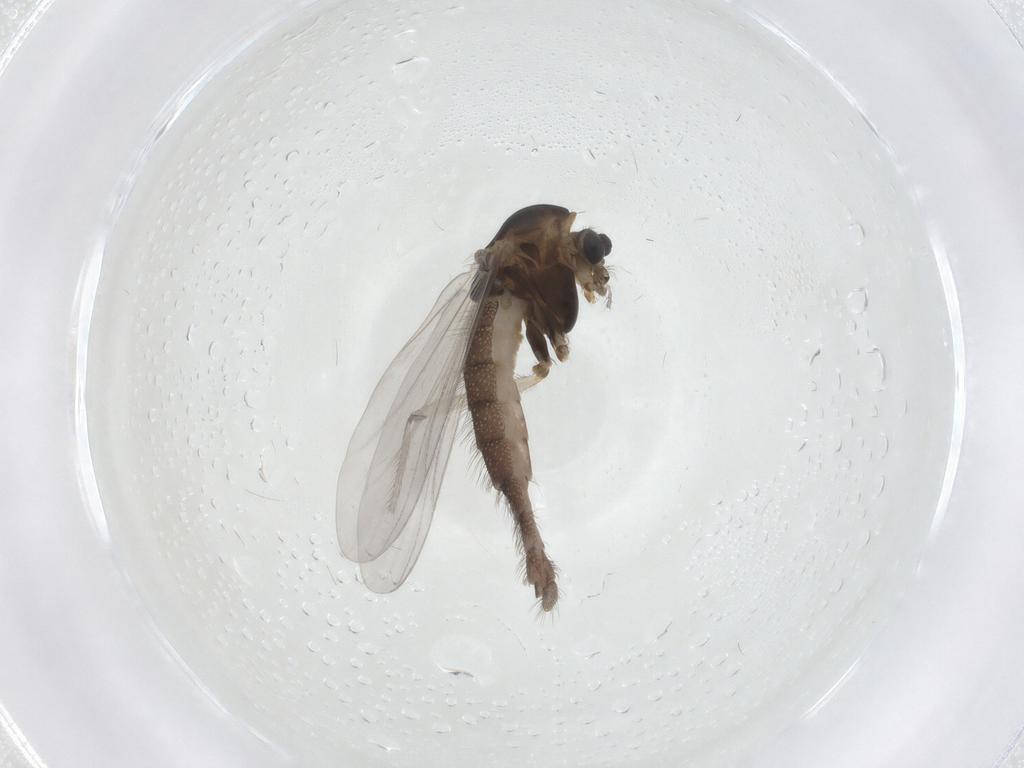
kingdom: Animalia
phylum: Arthropoda
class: Insecta
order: Diptera
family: Chironomidae
